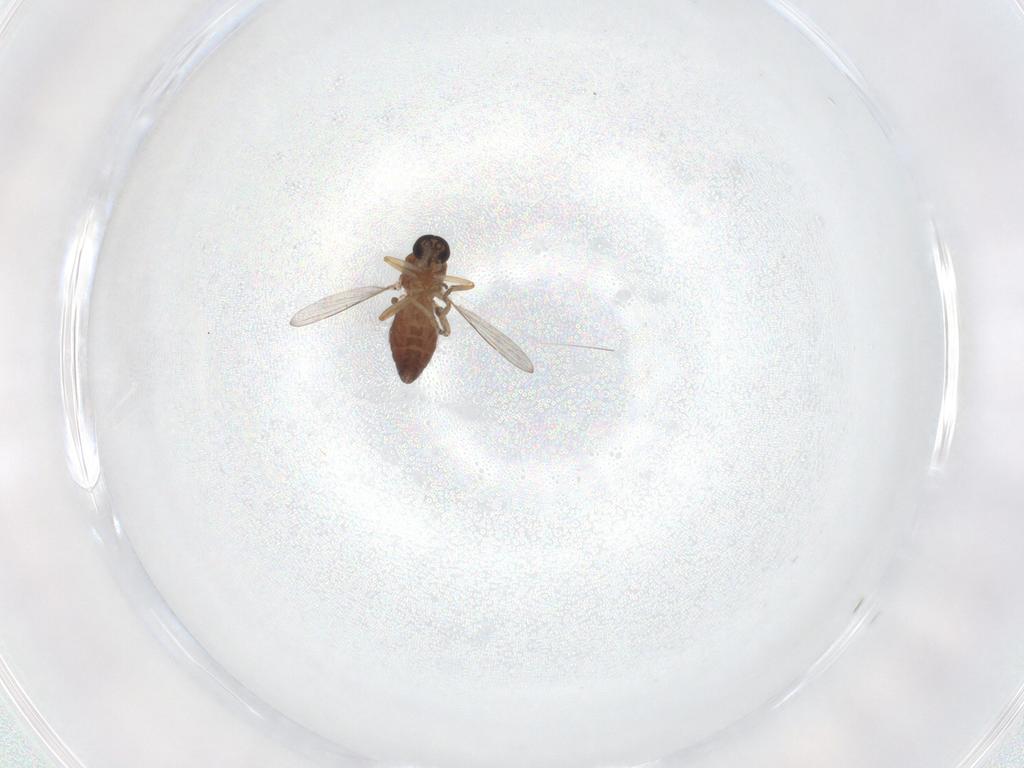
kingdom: Animalia
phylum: Arthropoda
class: Insecta
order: Diptera
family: Ceratopogonidae
